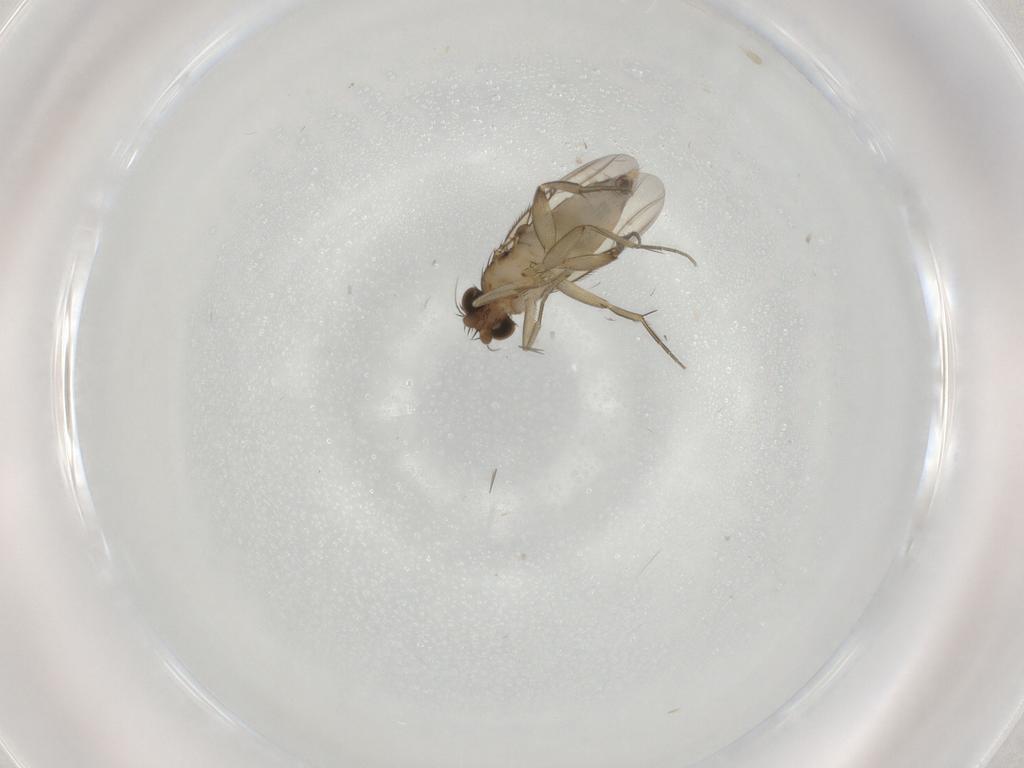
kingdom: Animalia
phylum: Arthropoda
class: Insecta
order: Diptera
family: Phoridae
